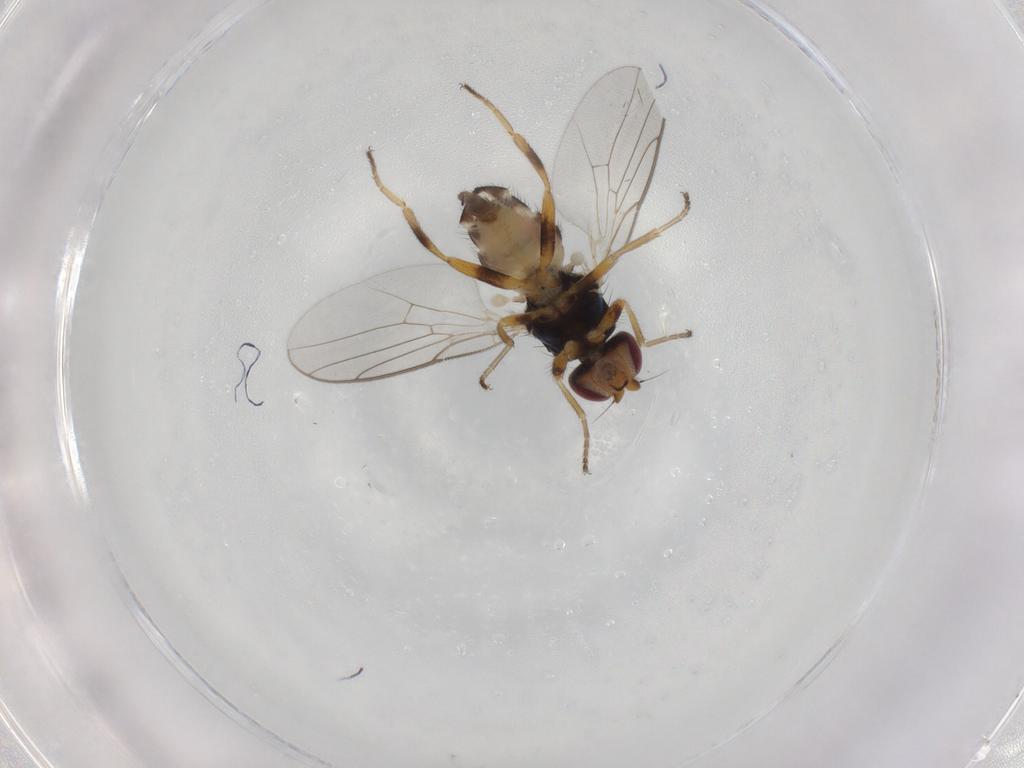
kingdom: Animalia
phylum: Arthropoda
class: Insecta
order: Diptera
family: Chloropidae
